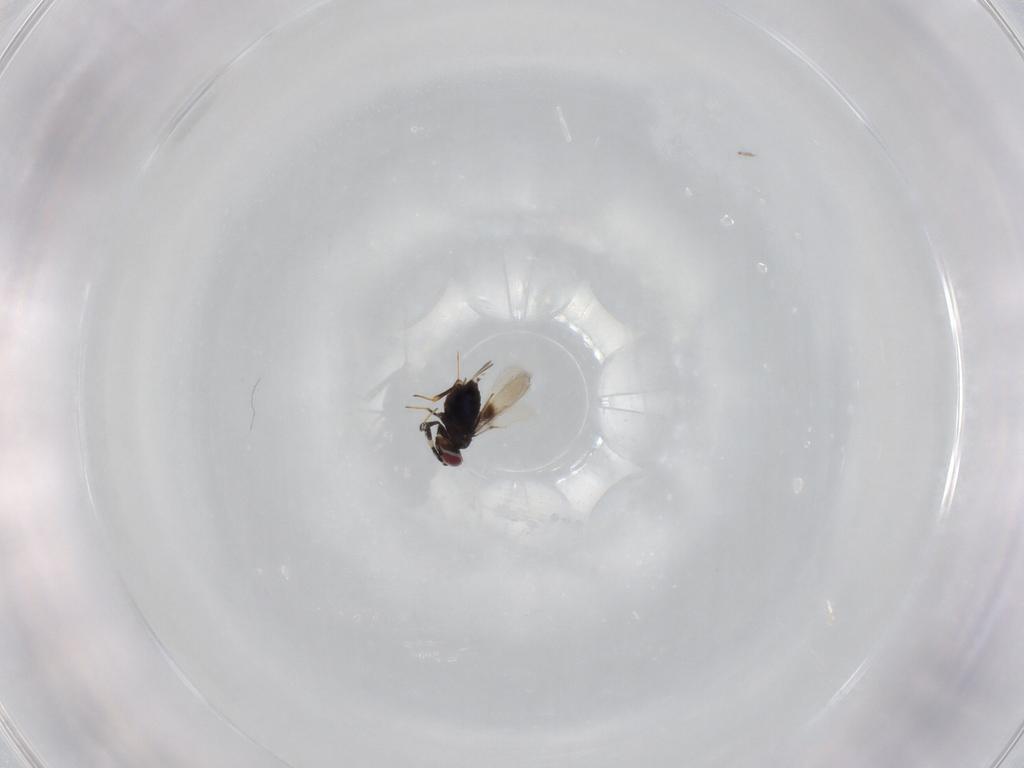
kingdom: Animalia
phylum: Arthropoda
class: Insecta
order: Hymenoptera
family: Azotidae
